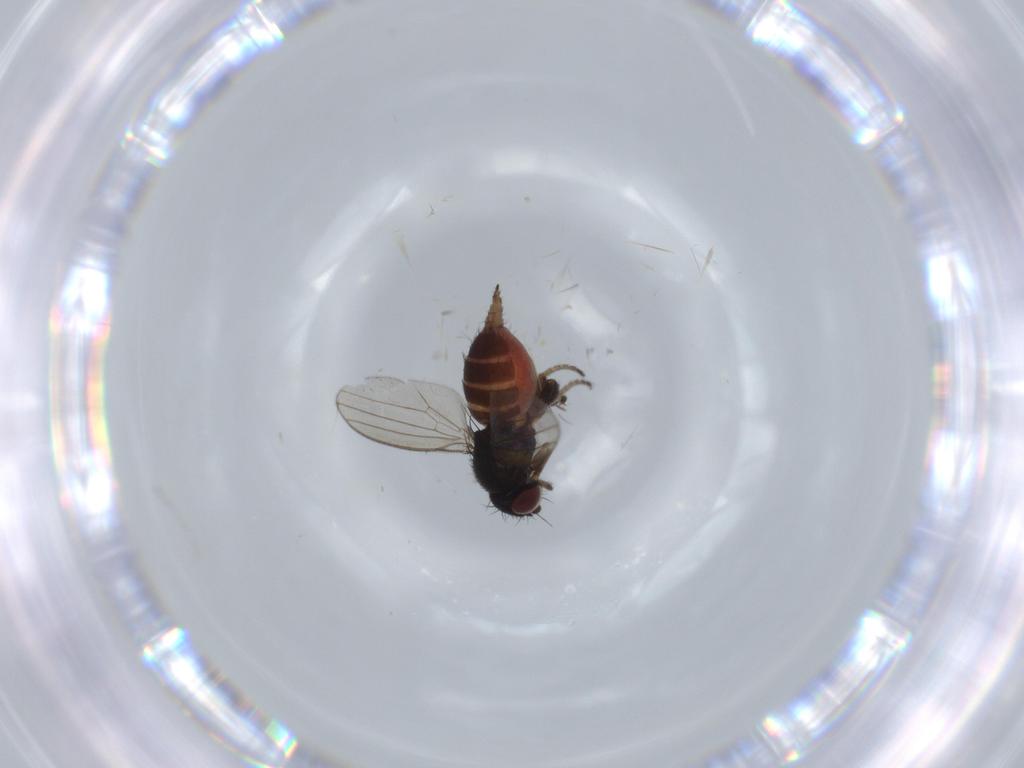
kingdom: Animalia
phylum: Arthropoda
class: Insecta
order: Diptera
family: Milichiidae
